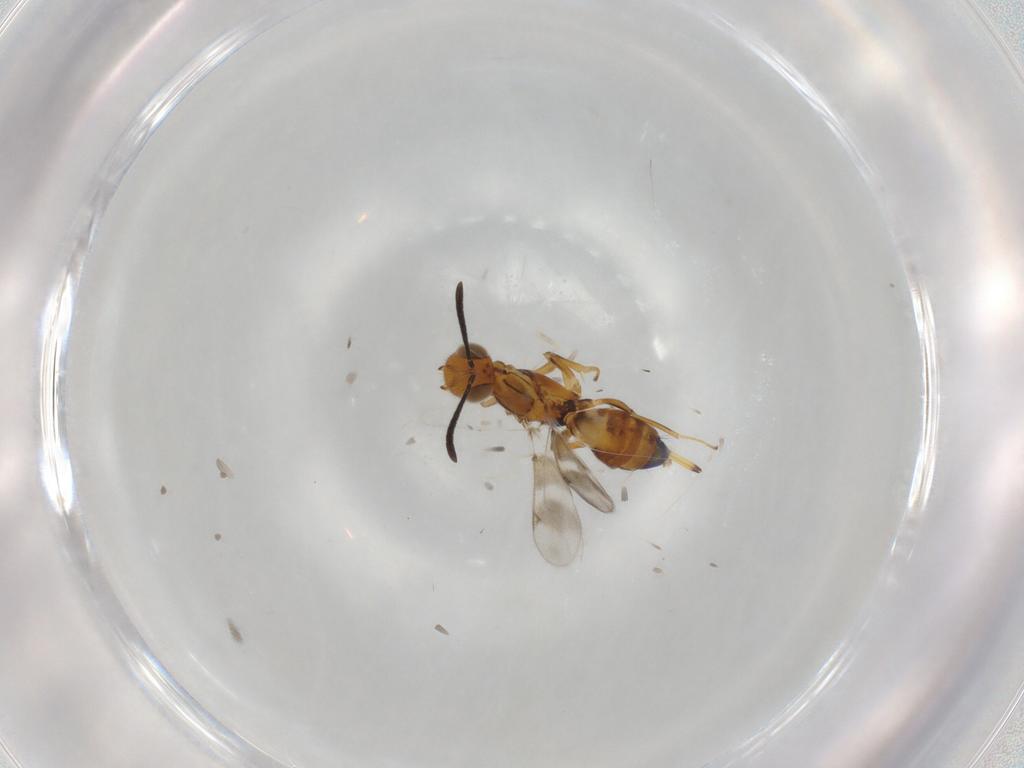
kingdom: Animalia
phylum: Arthropoda
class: Insecta
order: Hymenoptera
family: Eupelmidae
